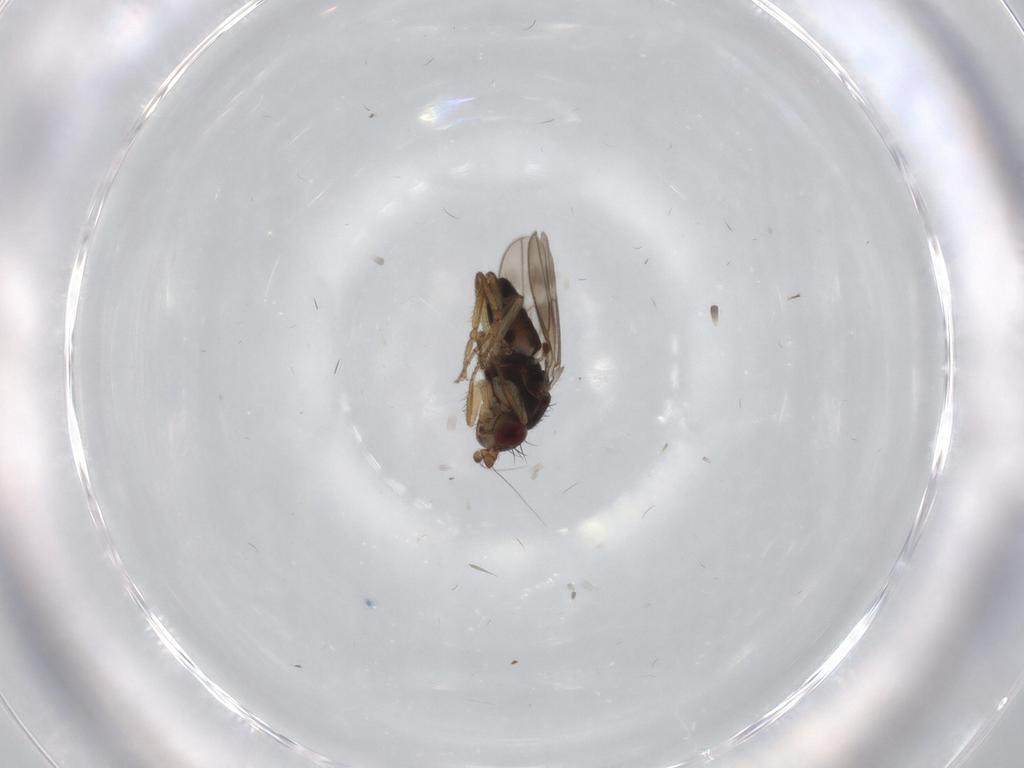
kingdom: Animalia
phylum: Arthropoda
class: Insecta
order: Diptera
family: Sphaeroceridae
